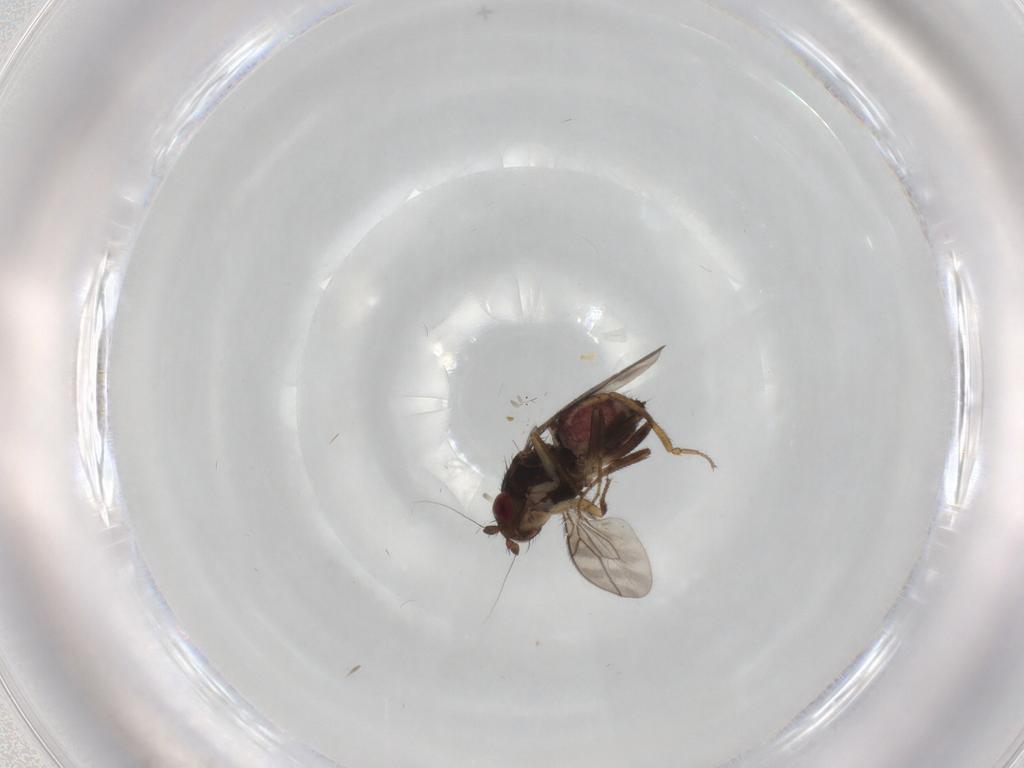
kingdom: Animalia
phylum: Arthropoda
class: Insecta
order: Diptera
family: Sphaeroceridae
